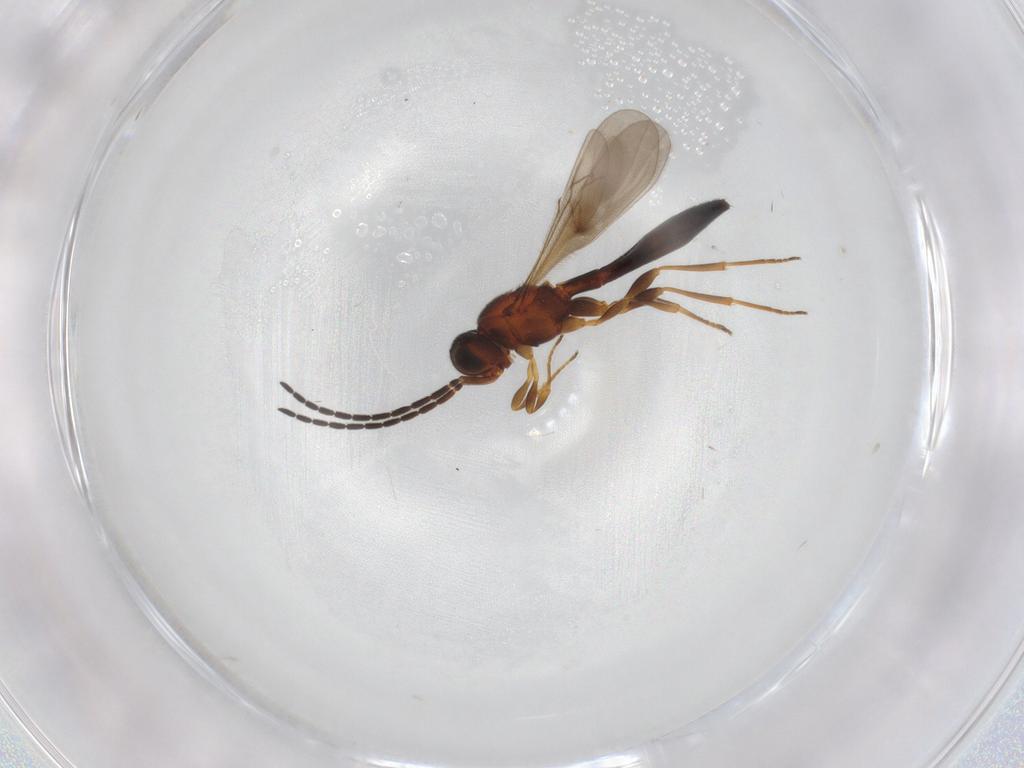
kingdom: Animalia
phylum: Arthropoda
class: Insecta
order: Hymenoptera
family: Scelionidae
